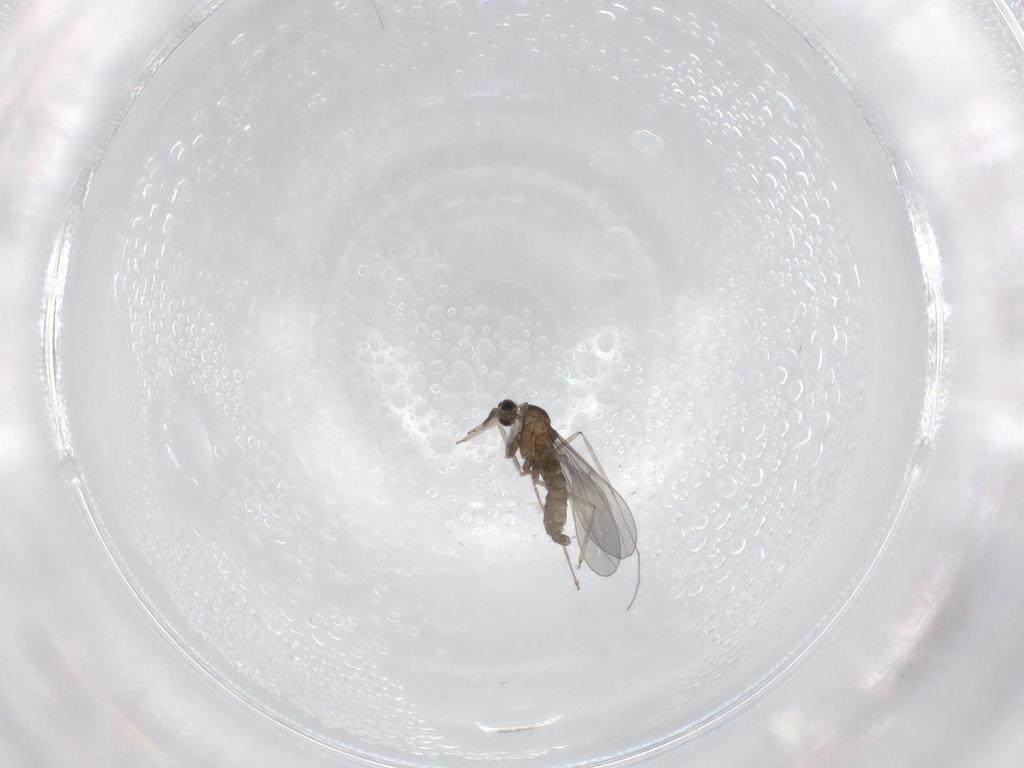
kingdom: Animalia
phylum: Arthropoda
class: Insecta
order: Diptera
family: Cecidomyiidae
